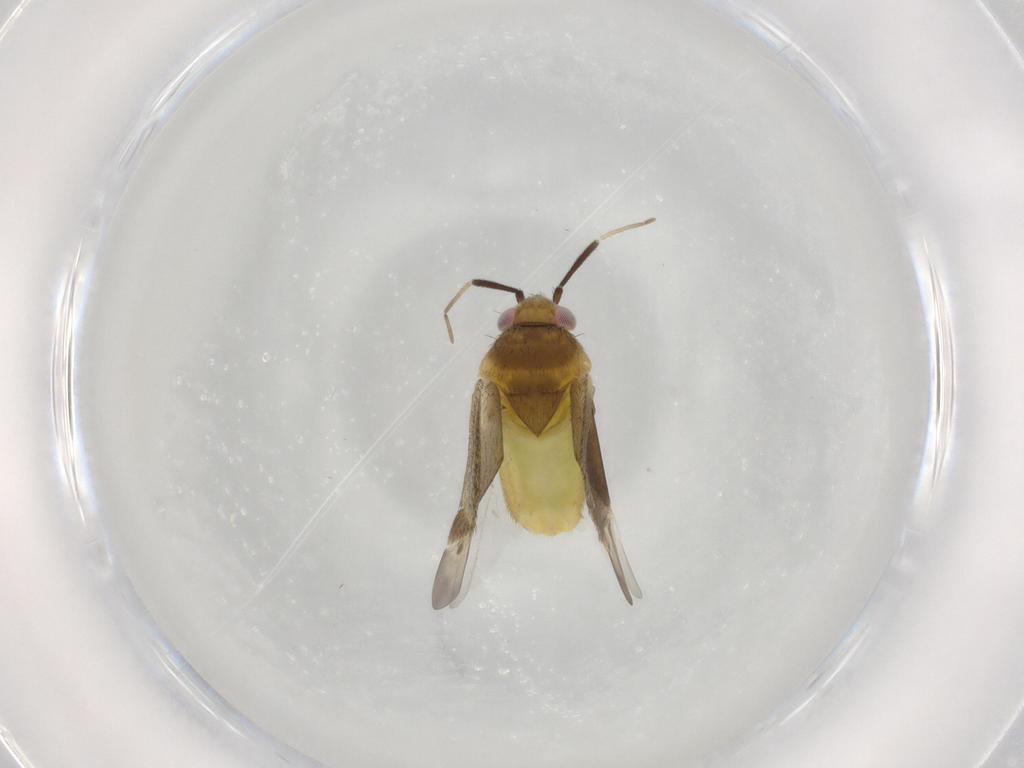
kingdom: Animalia
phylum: Arthropoda
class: Insecta
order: Hemiptera
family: Miridae
